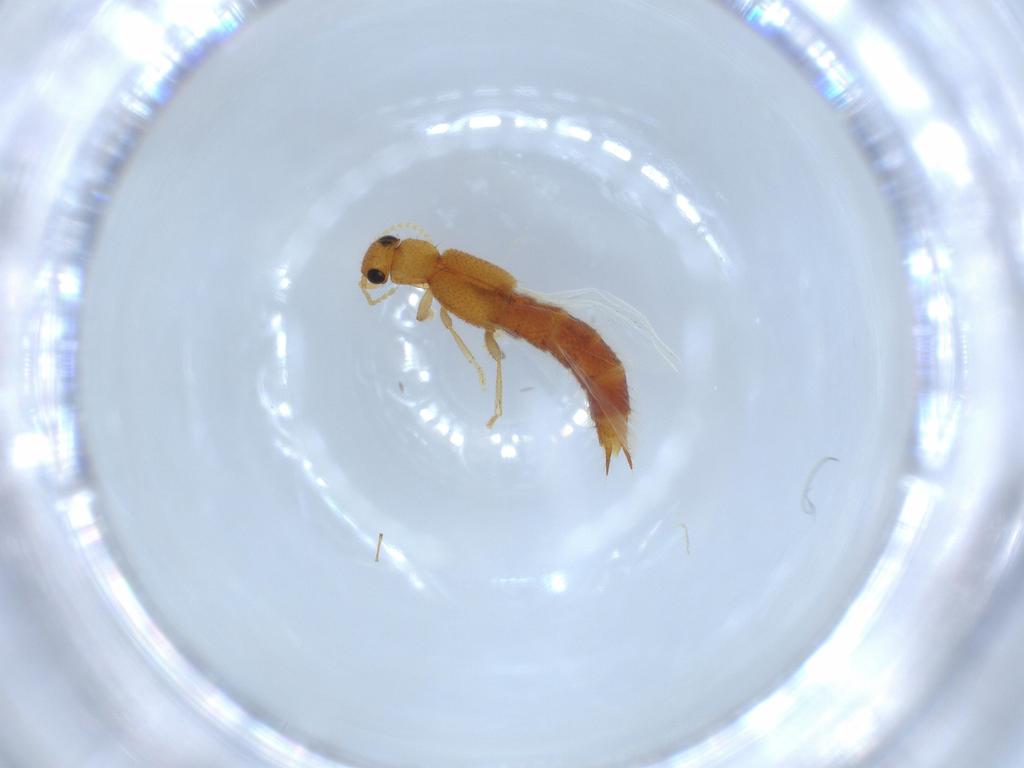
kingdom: Animalia
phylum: Arthropoda
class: Insecta
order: Coleoptera
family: Staphylinidae
